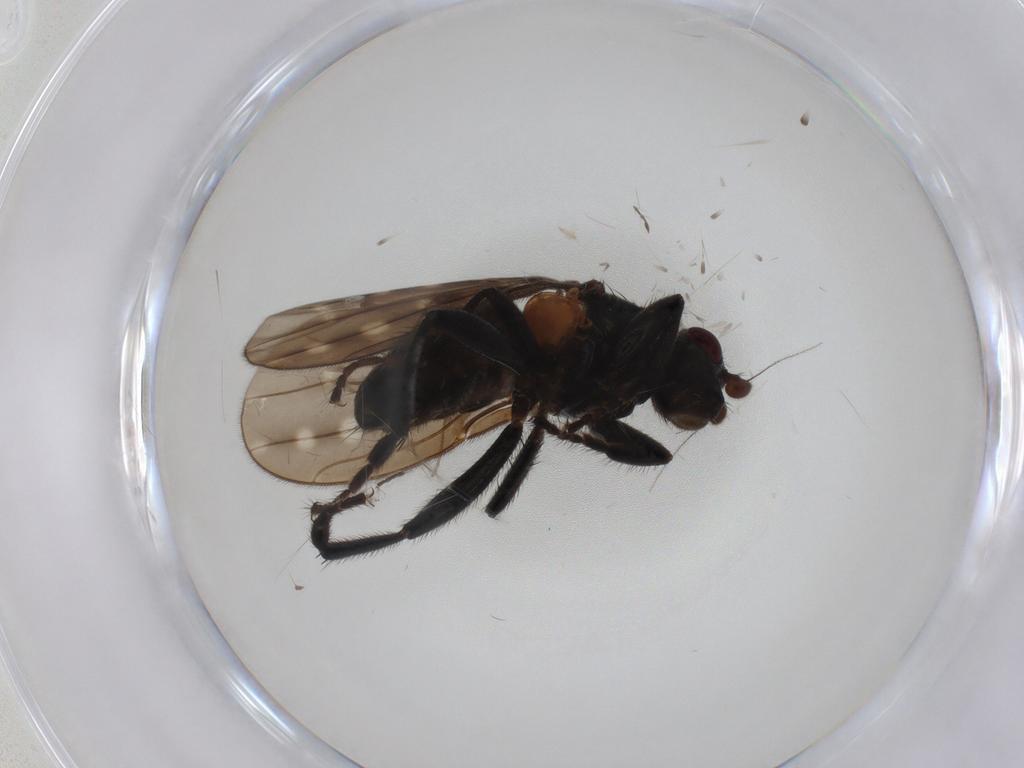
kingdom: Animalia
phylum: Arthropoda
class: Insecta
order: Diptera
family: Sphaeroceridae
